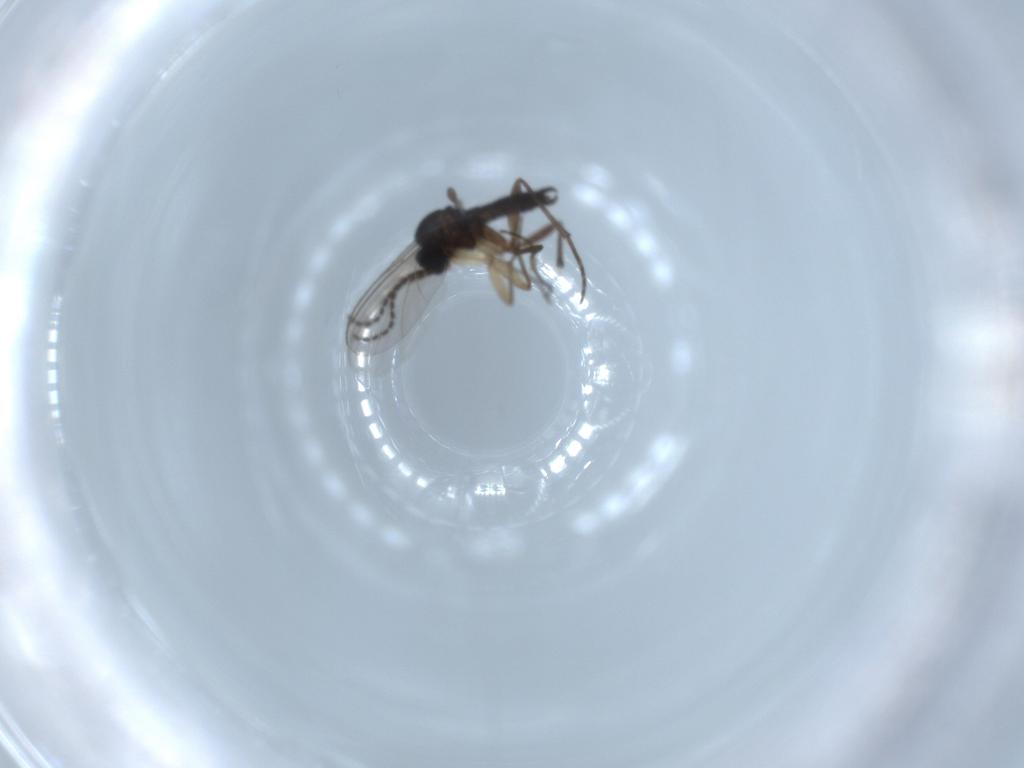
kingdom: Animalia
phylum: Arthropoda
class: Insecta
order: Diptera
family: Sciaridae
